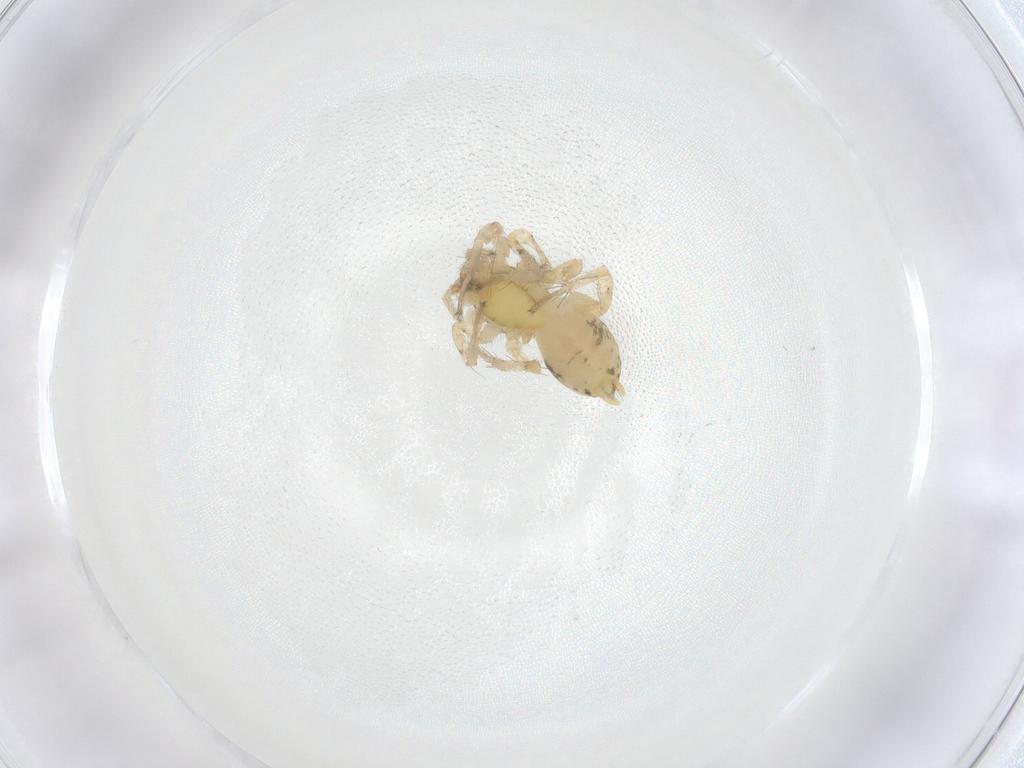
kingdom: Animalia
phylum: Arthropoda
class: Arachnida
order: Araneae
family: Anyphaenidae
